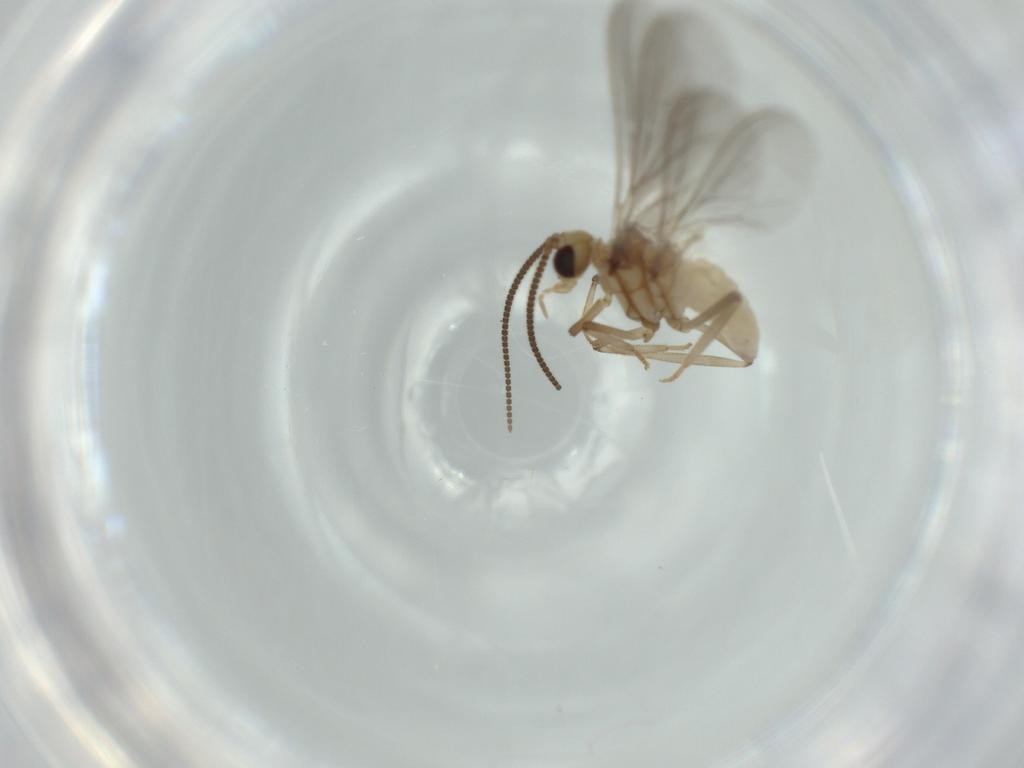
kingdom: Animalia
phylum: Arthropoda
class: Insecta
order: Neuroptera
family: Coniopterygidae
